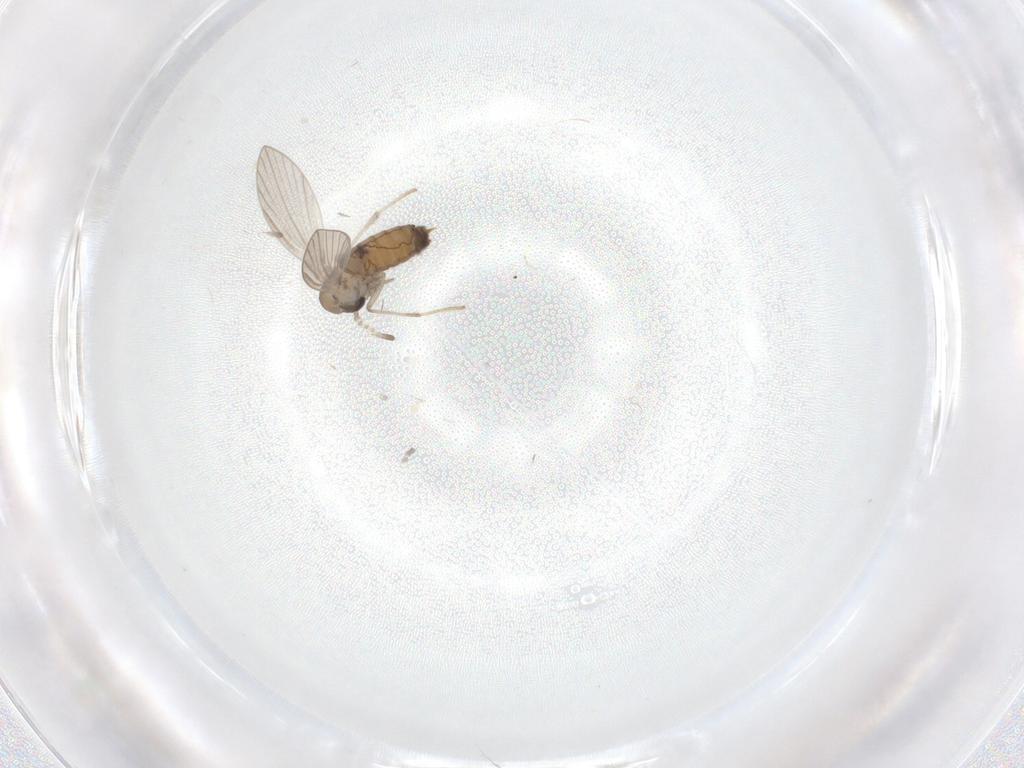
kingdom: Animalia
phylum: Arthropoda
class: Insecta
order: Diptera
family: Psychodidae
